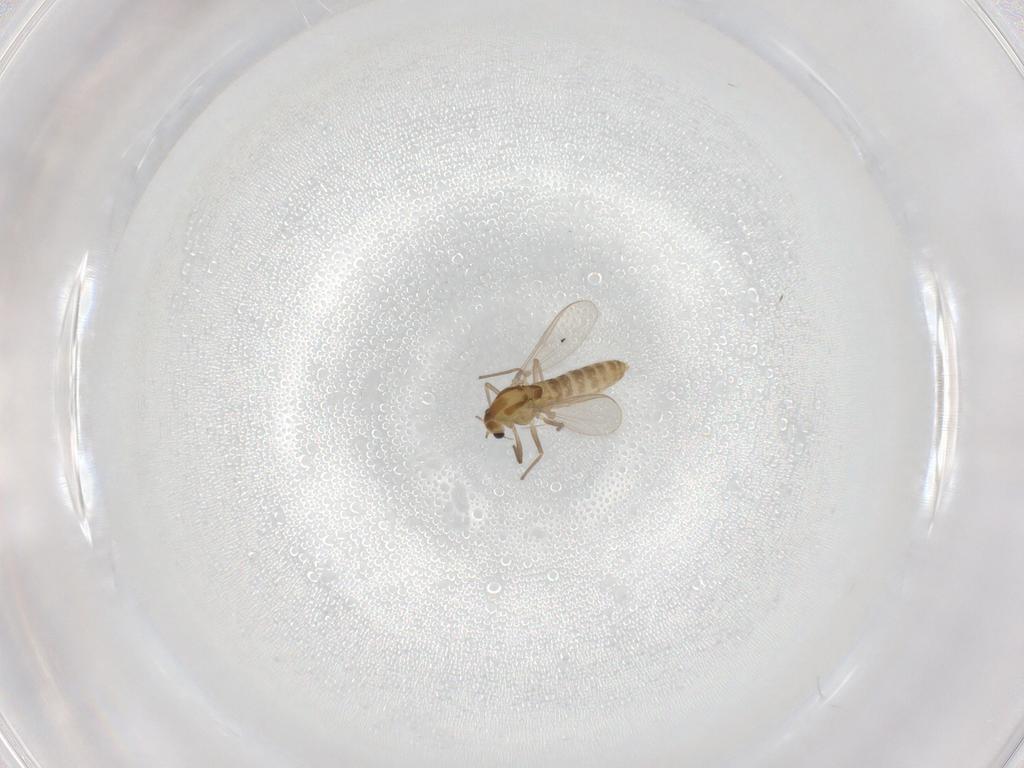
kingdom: Animalia
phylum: Arthropoda
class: Insecta
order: Diptera
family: Chironomidae
